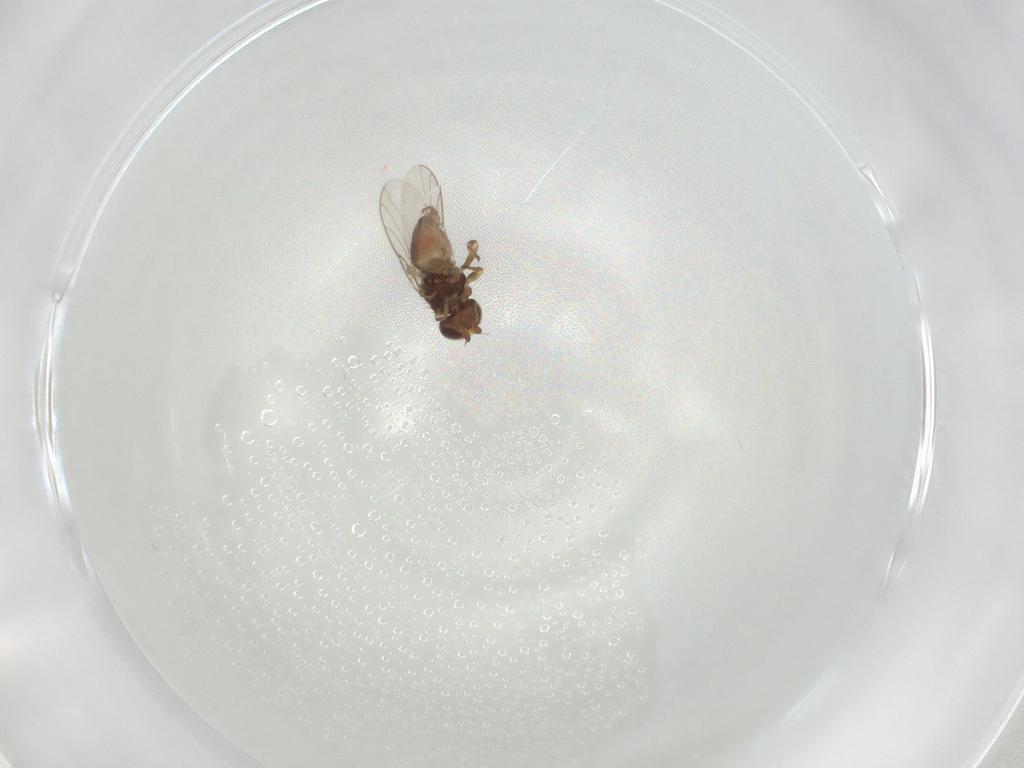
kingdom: Animalia
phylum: Arthropoda
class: Insecta
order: Diptera
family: Chloropidae
